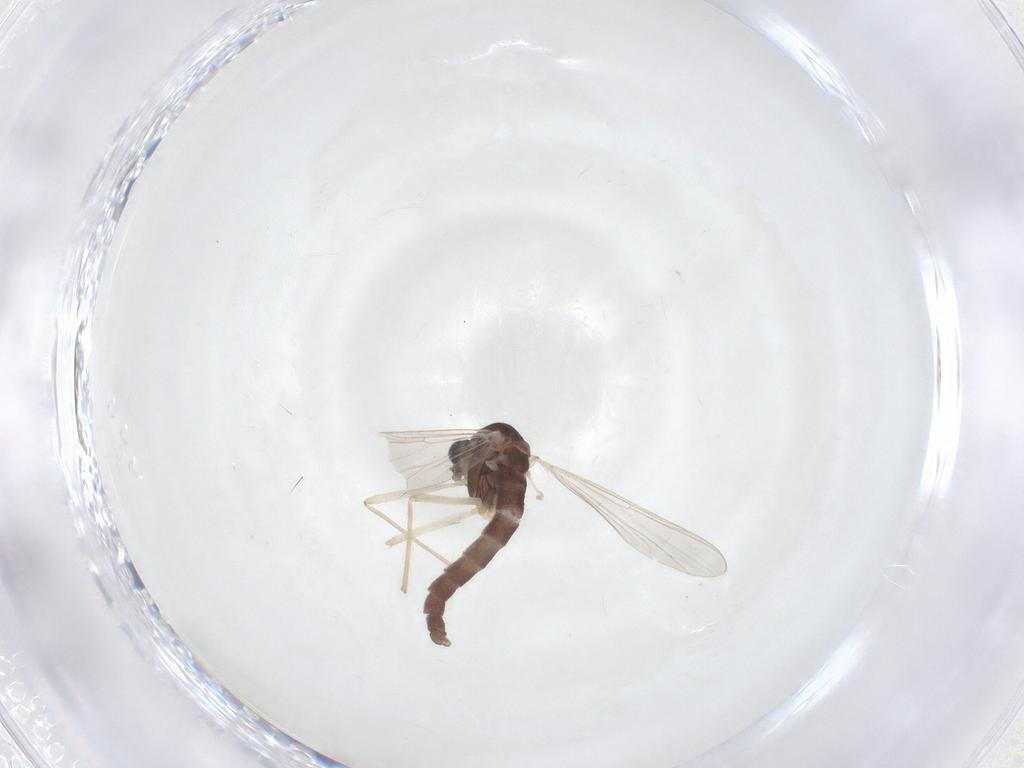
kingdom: Animalia
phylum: Arthropoda
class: Insecta
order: Diptera
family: Chironomidae
